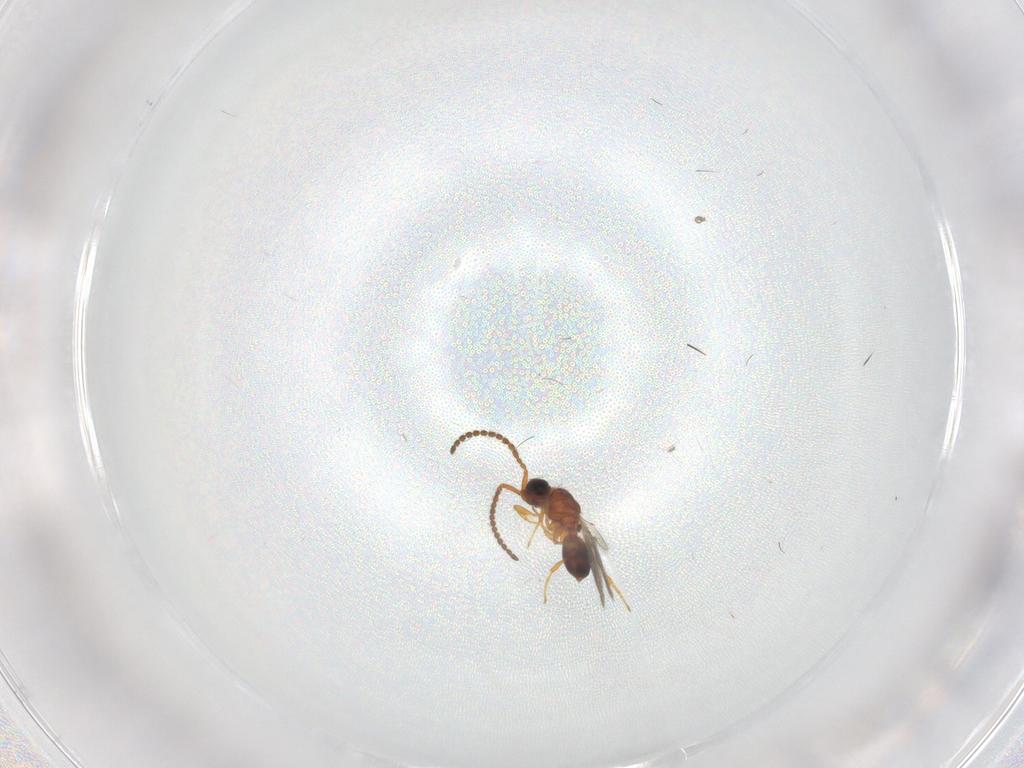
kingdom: Animalia
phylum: Arthropoda
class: Insecta
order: Hymenoptera
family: Diapriidae
